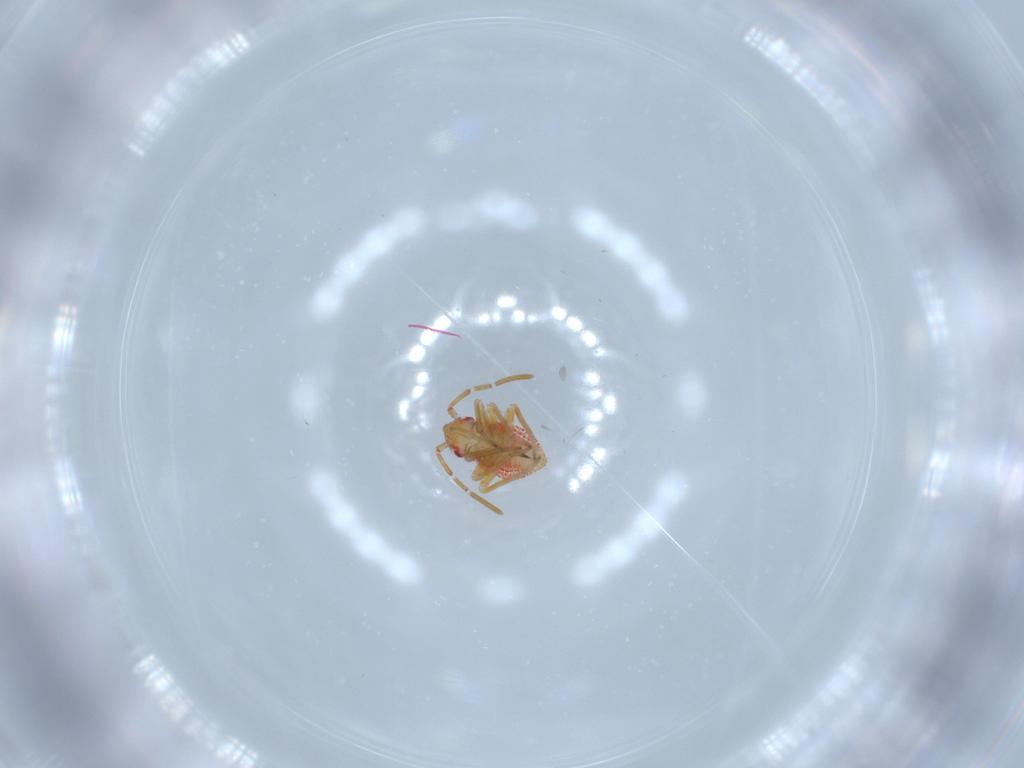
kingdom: Animalia
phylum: Arthropoda
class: Insecta
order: Hemiptera
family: Miridae
